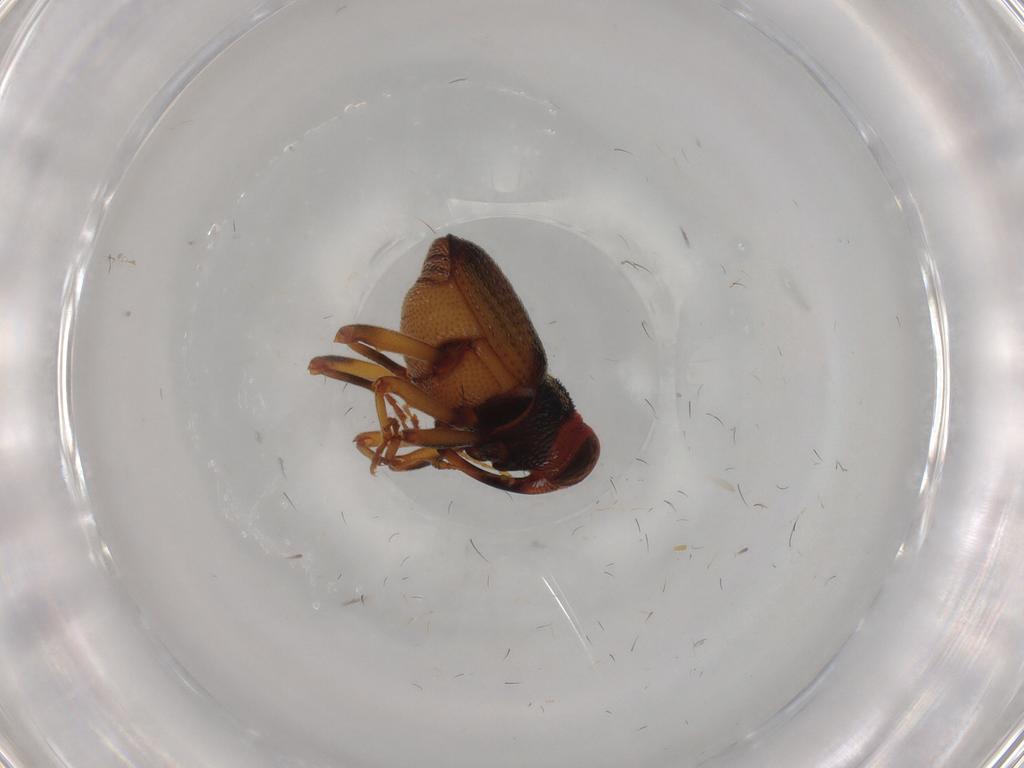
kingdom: Animalia
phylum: Arthropoda
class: Insecta
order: Coleoptera
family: Curculionidae
